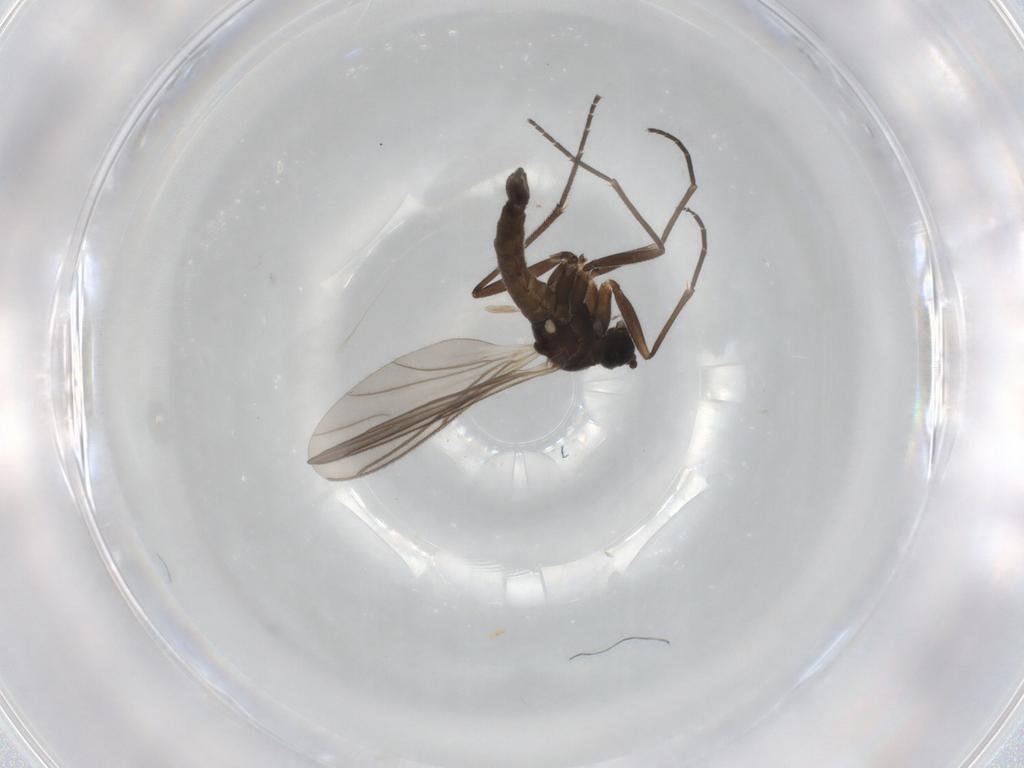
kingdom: Animalia
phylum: Arthropoda
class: Insecta
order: Diptera
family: Sciaridae
